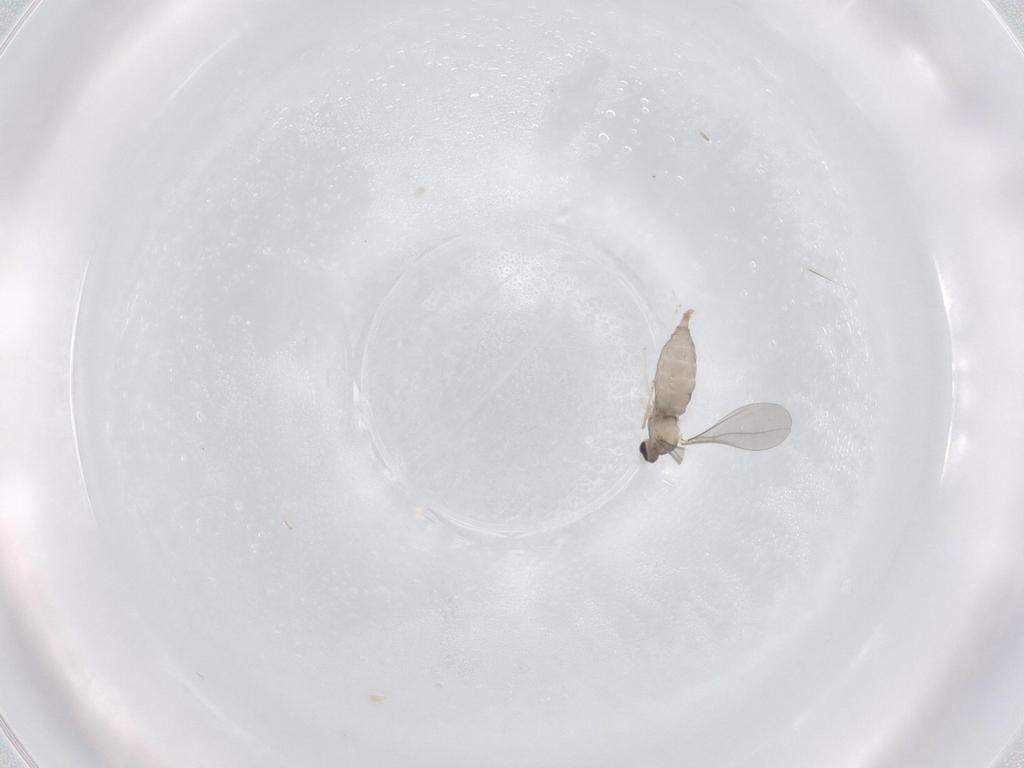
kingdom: Animalia
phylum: Arthropoda
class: Insecta
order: Diptera
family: Cecidomyiidae
